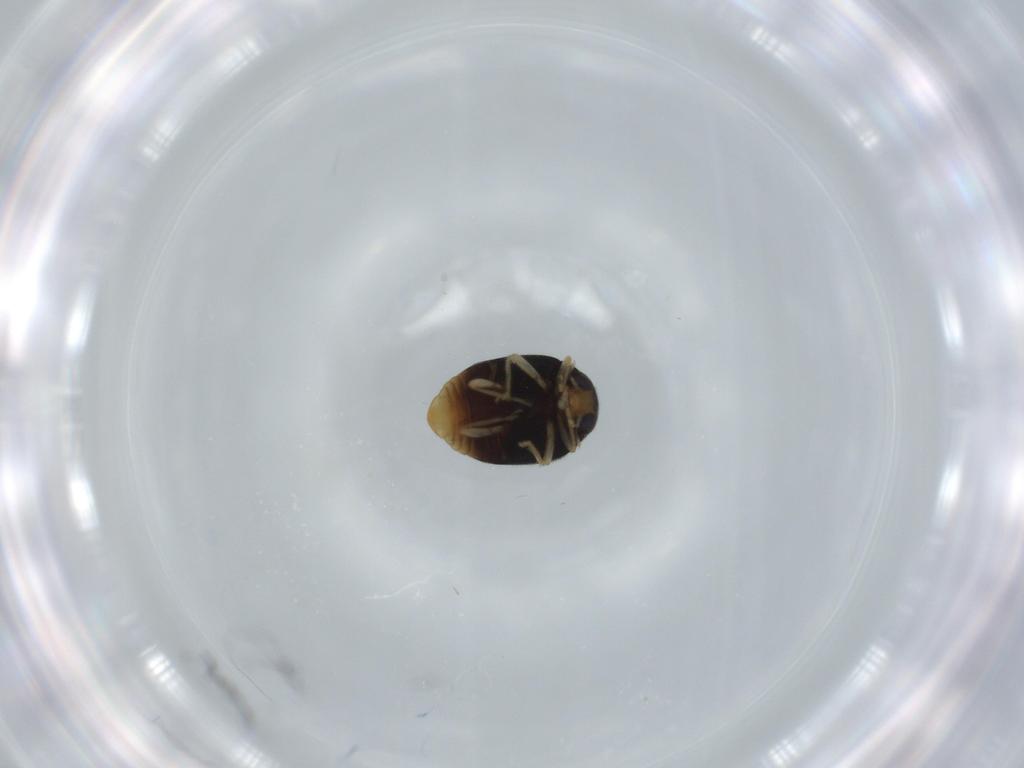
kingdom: Animalia
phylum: Arthropoda
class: Insecta
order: Coleoptera
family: Coccinellidae
